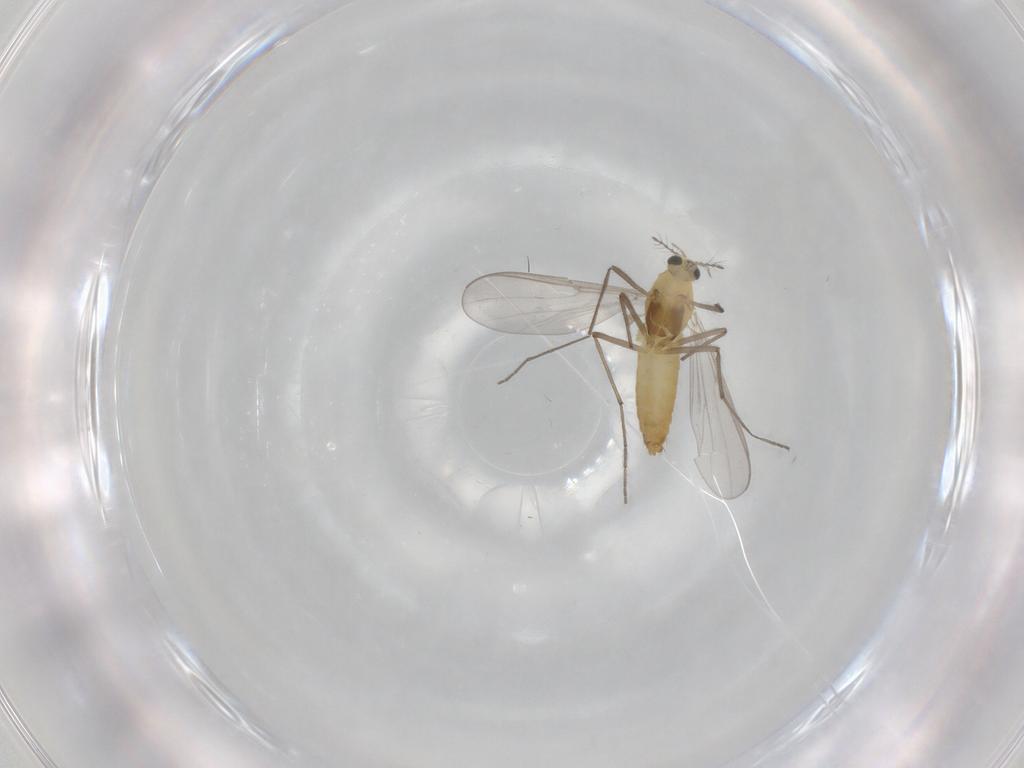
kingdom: Animalia
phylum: Arthropoda
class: Insecta
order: Diptera
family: Chironomidae
